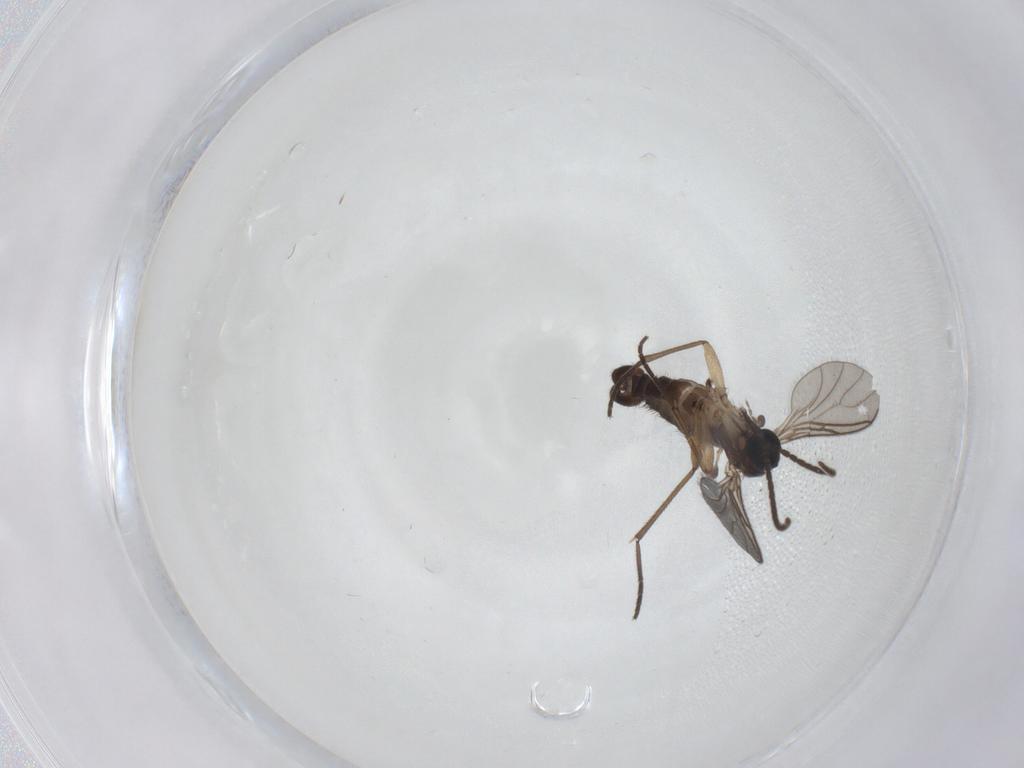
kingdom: Animalia
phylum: Arthropoda
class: Insecta
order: Diptera
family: Sciaridae
